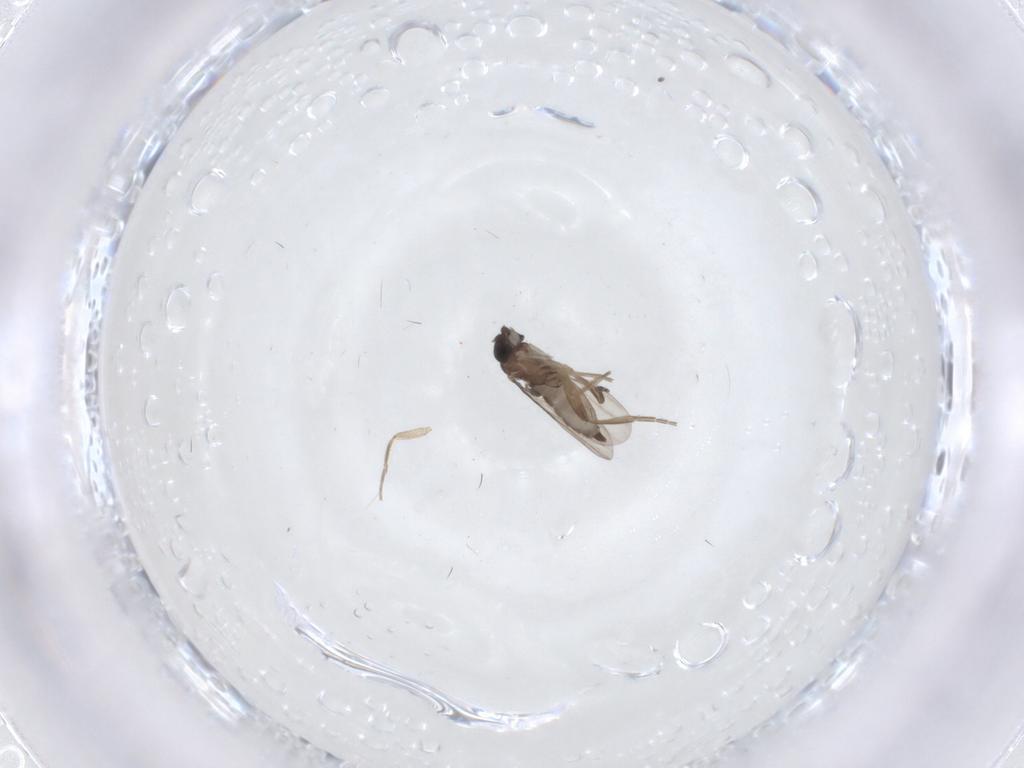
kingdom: Animalia
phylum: Arthropoda
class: Insecta
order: Diptera
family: Phoridae
